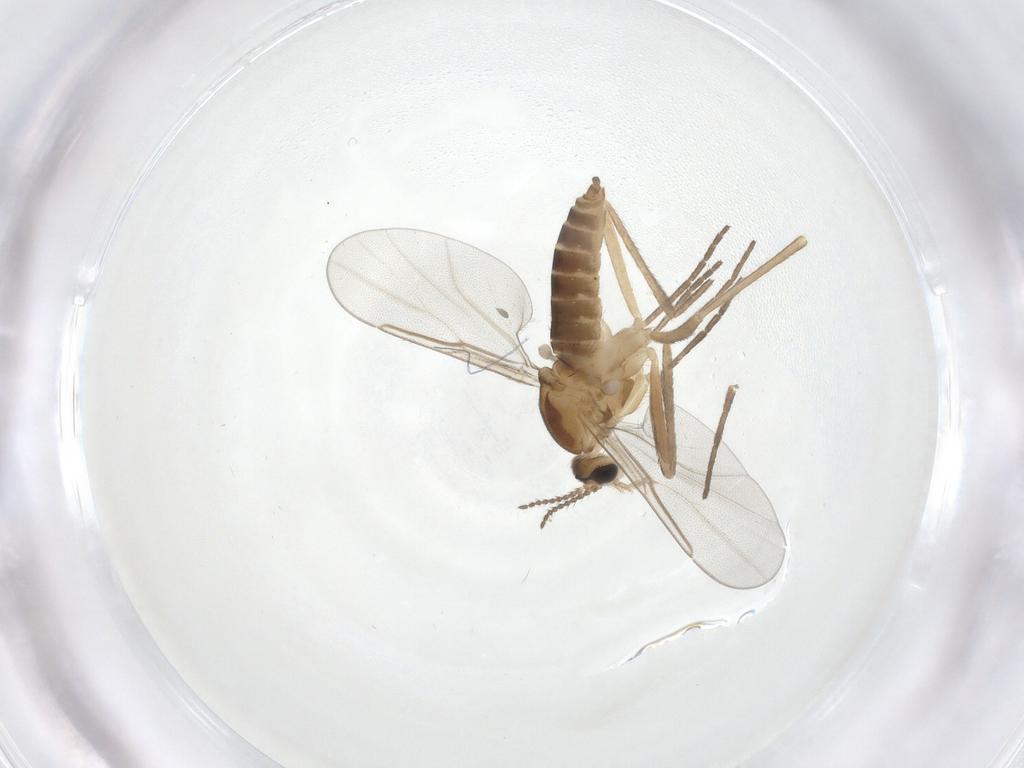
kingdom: Animalia
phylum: Arthropoda
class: Insecta
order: Diptera
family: Cecidomyiidae
